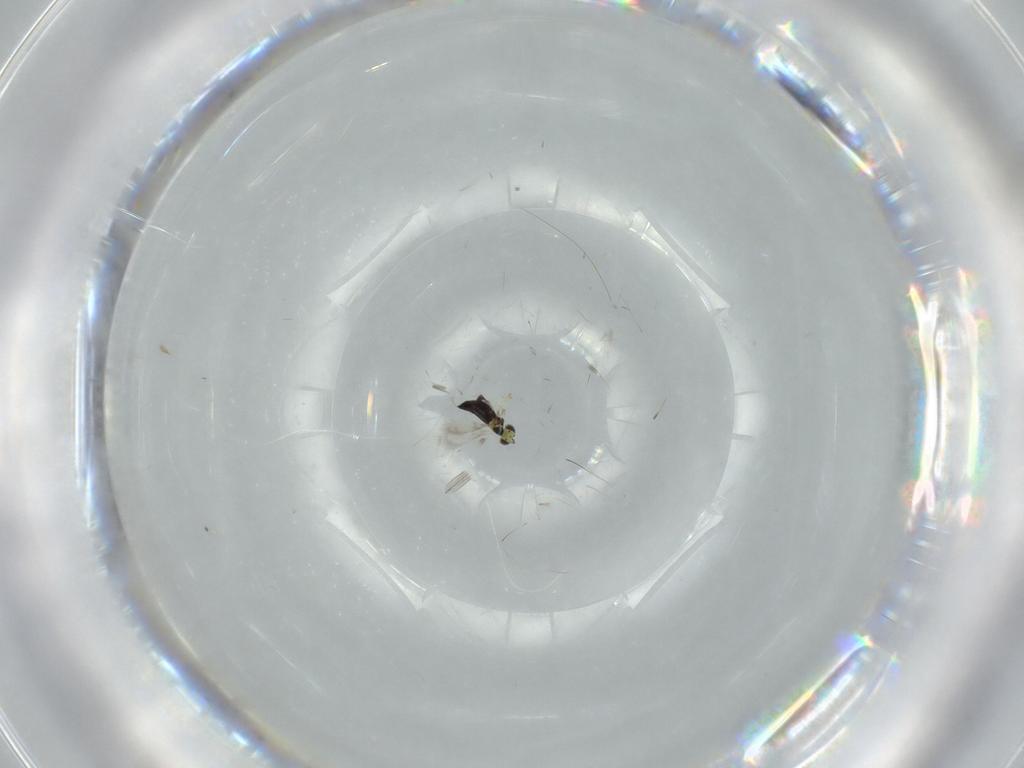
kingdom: Animalia
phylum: Arthropoda
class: Insecta
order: Hymenoptera
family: Signiphoridae
